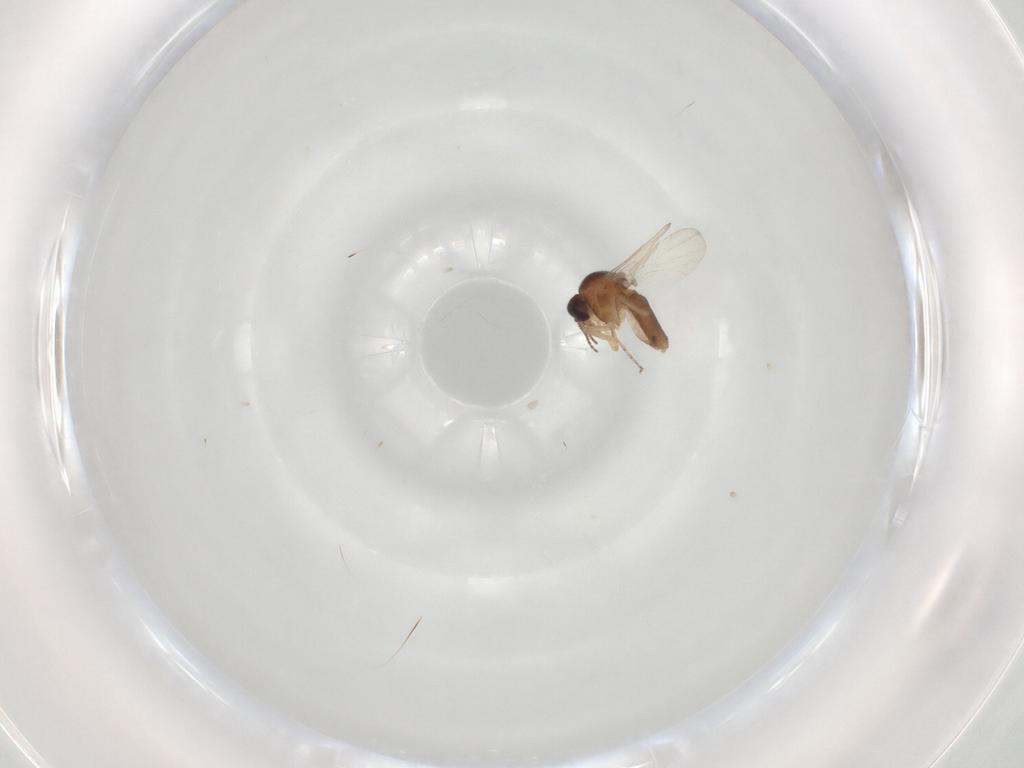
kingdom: Animalia
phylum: Arthropoda
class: Insecta
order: Diptera
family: Ceratopogonidae
